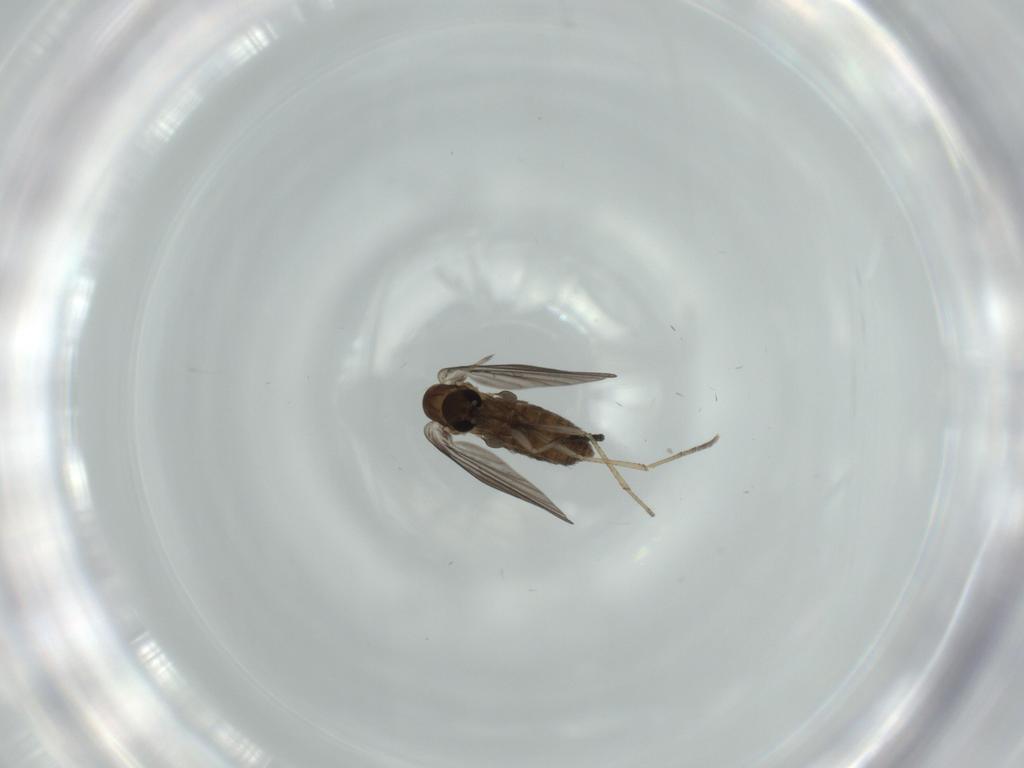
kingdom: Animalia
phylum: Arthropoda
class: Insecta
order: Diptera
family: Psychodidae
